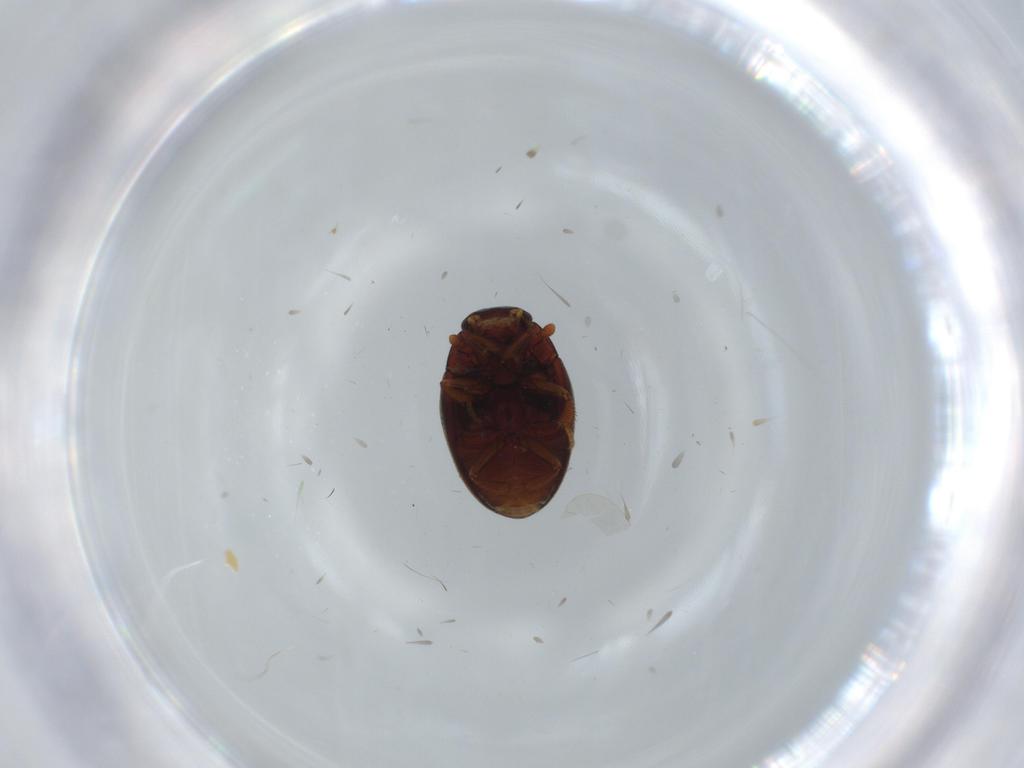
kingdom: Animalia
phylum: Arthropoda
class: Insecta
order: Coleoptera
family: Hydrophilidae
